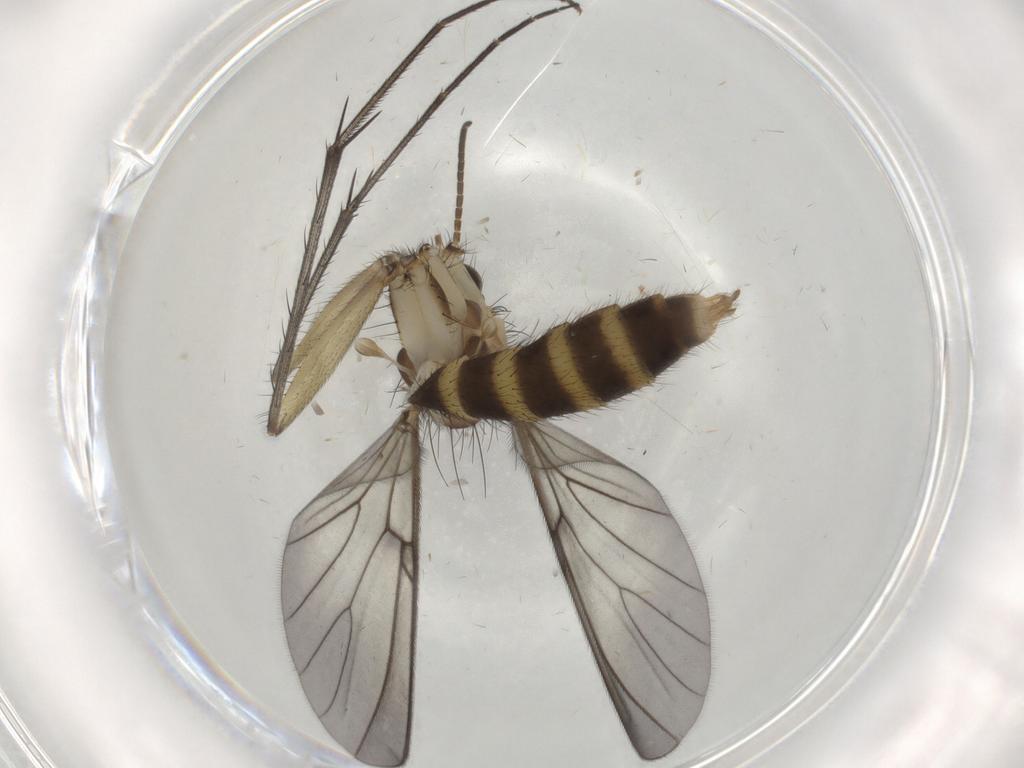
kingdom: Animalia
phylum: Arthropoda
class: Insecta
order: Diptera
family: Mycetophilidae
